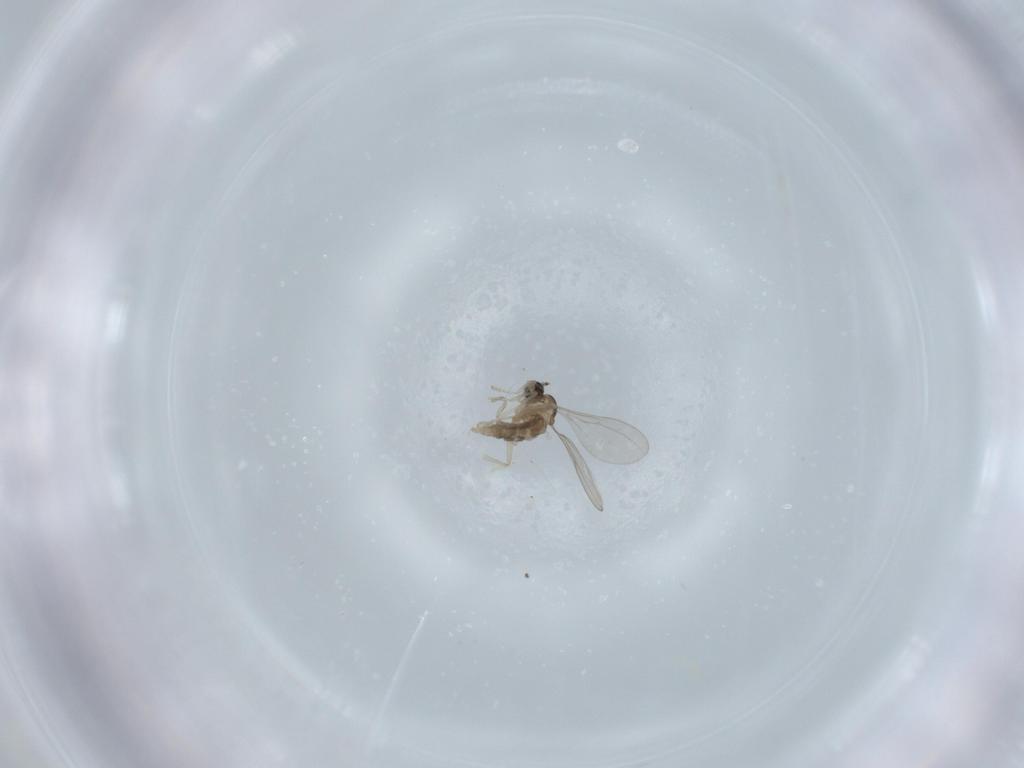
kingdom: Animalia
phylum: Arthropoda
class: Insecta
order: Diptera
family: Cecidomyiidae
